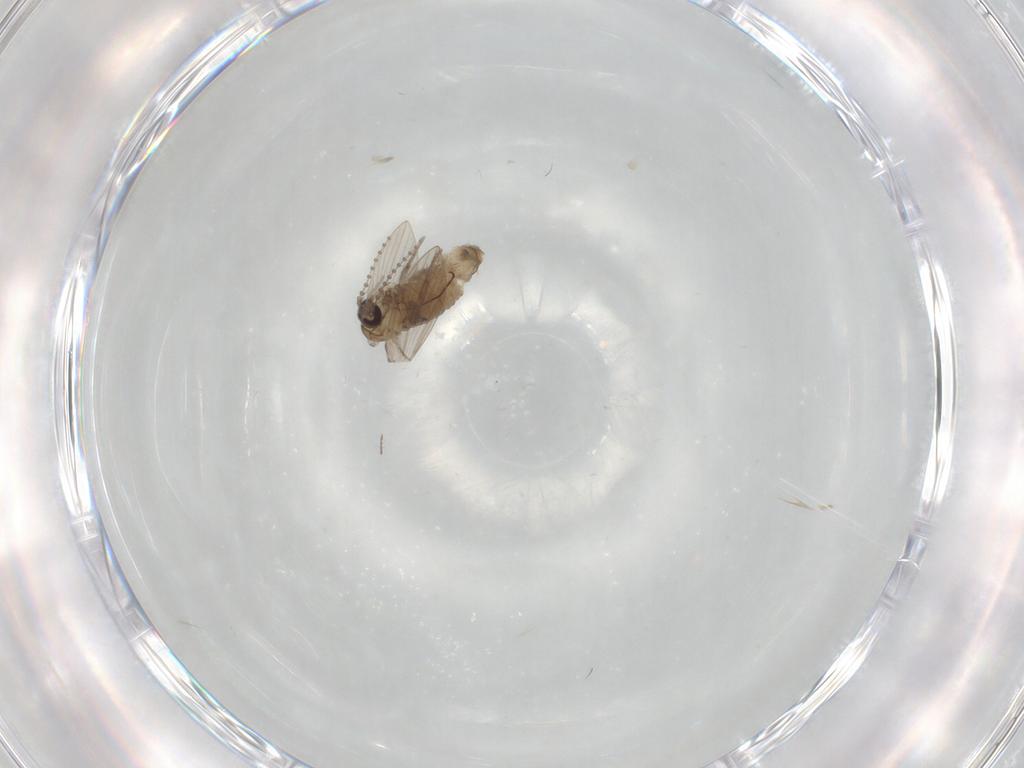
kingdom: Animalia
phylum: Arthropoda
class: Insecta
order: Diptera
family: Psychodidae
